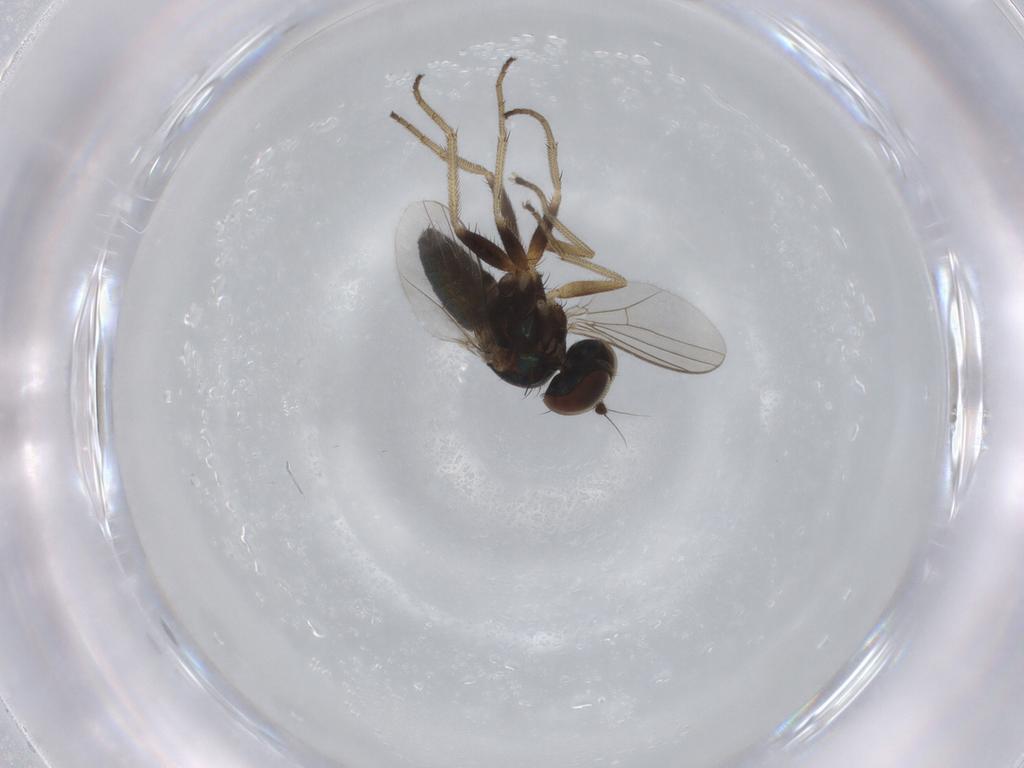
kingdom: Animalia
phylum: Arthropoda
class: Insecta
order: Diptera
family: Dolichopodidae
